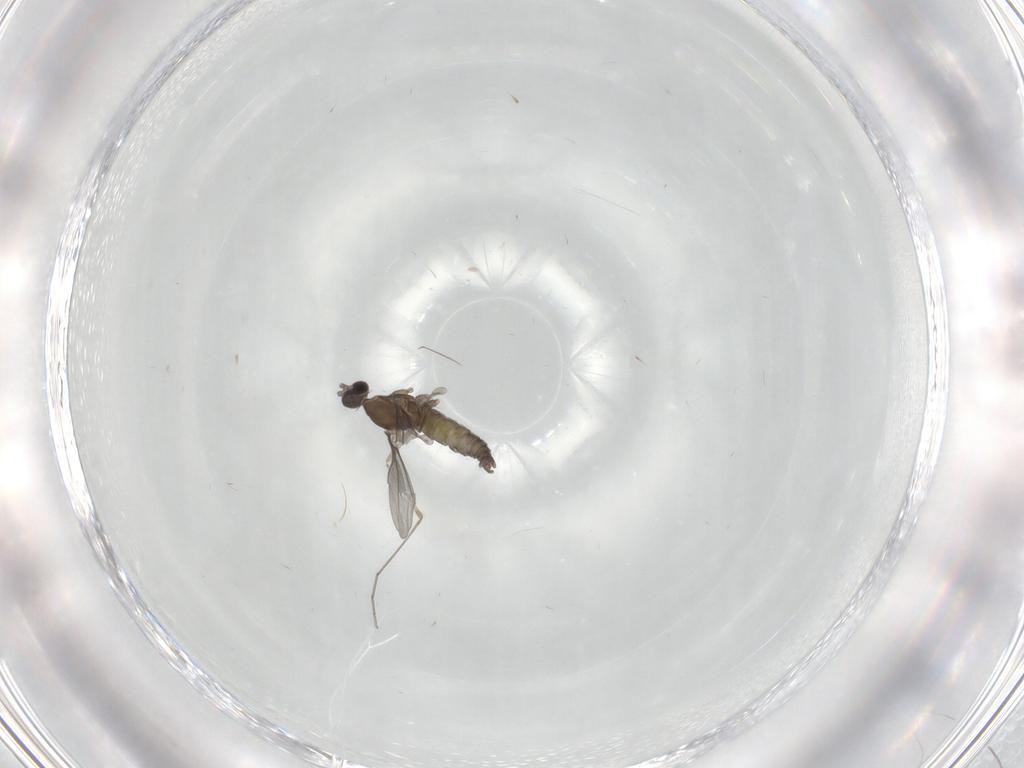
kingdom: Animalia
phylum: Arthropoda
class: Insecta
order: Diptera
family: Cecidomyiidae
